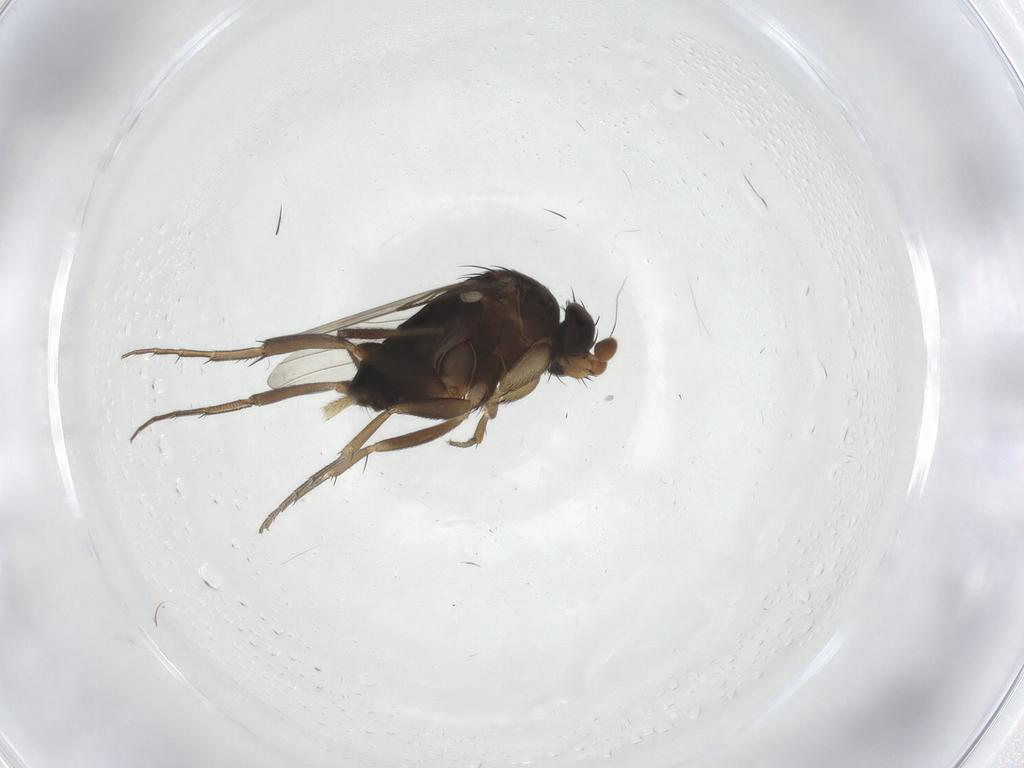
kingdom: Animalia
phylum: Arthropoda
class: Insecta
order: Diptera
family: Phoridae
